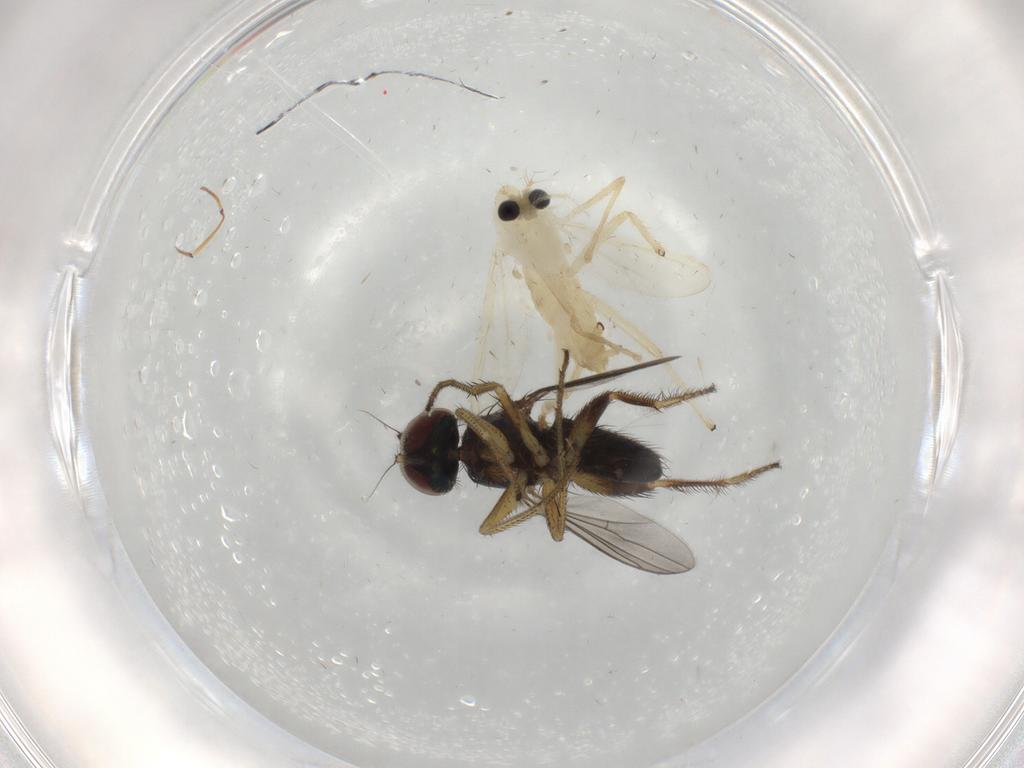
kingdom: Animalia
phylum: Arthropoda
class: Insecta
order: Diptera
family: Chironomidae
